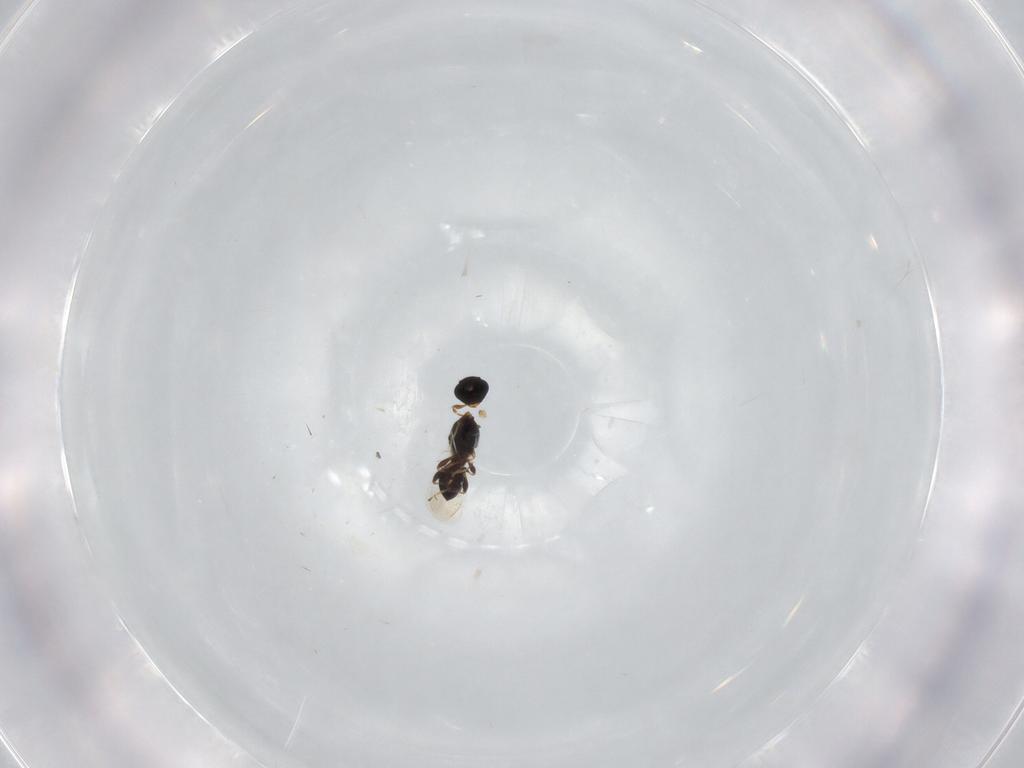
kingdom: Animalia
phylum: Arthropoda
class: Insecta
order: Hymenoptera
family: Platygastridae
